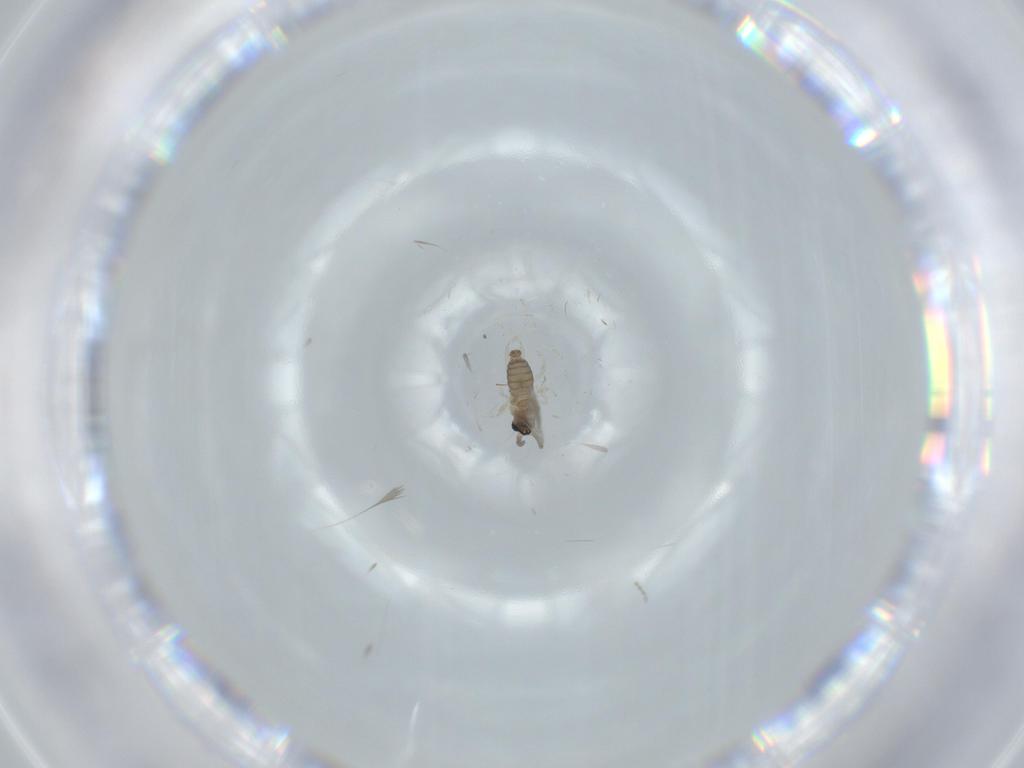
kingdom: Animalia
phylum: Arthropoda
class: Insecta
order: Diptera
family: Cecidomyiidae
